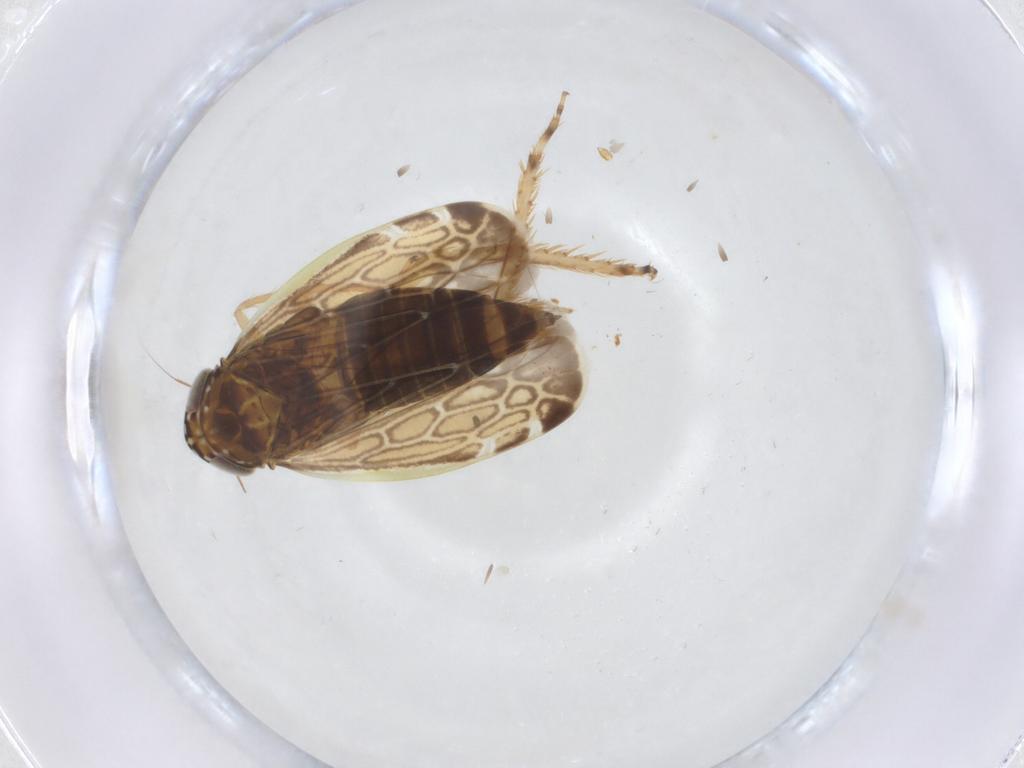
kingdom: Animalia
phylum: Arthropoda
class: Insecta
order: Hemiptera
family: Cicadellidae
